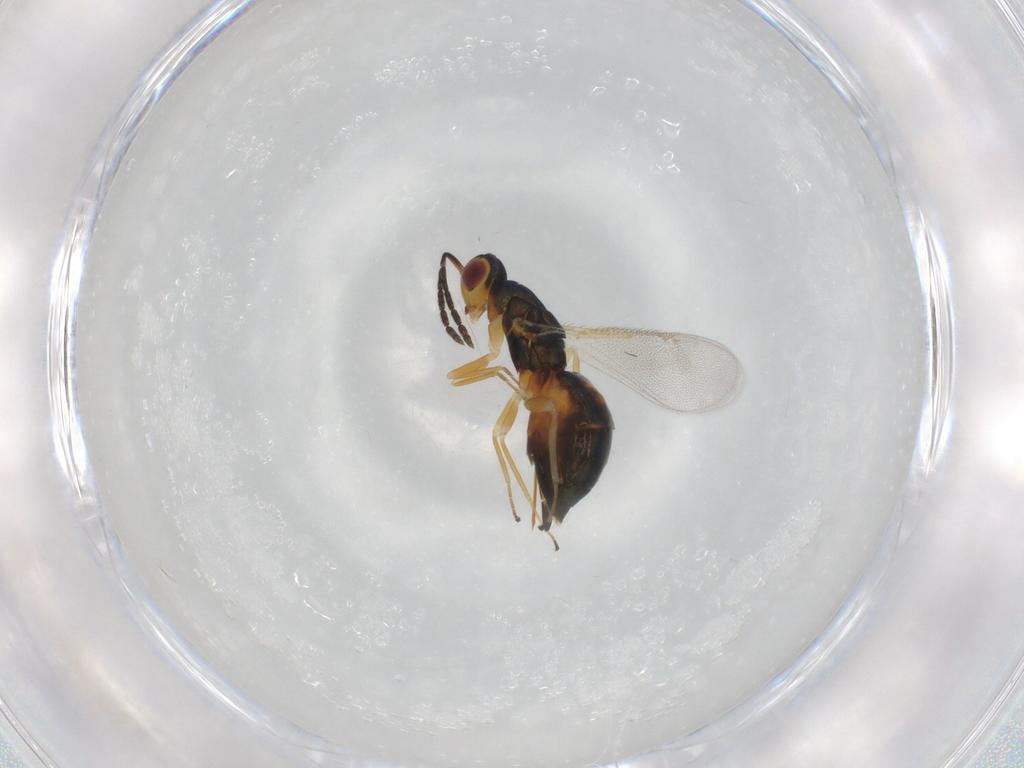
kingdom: Animalia
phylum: Arthropoda
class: Insecta
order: Hymenoptera
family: Eulophidae
